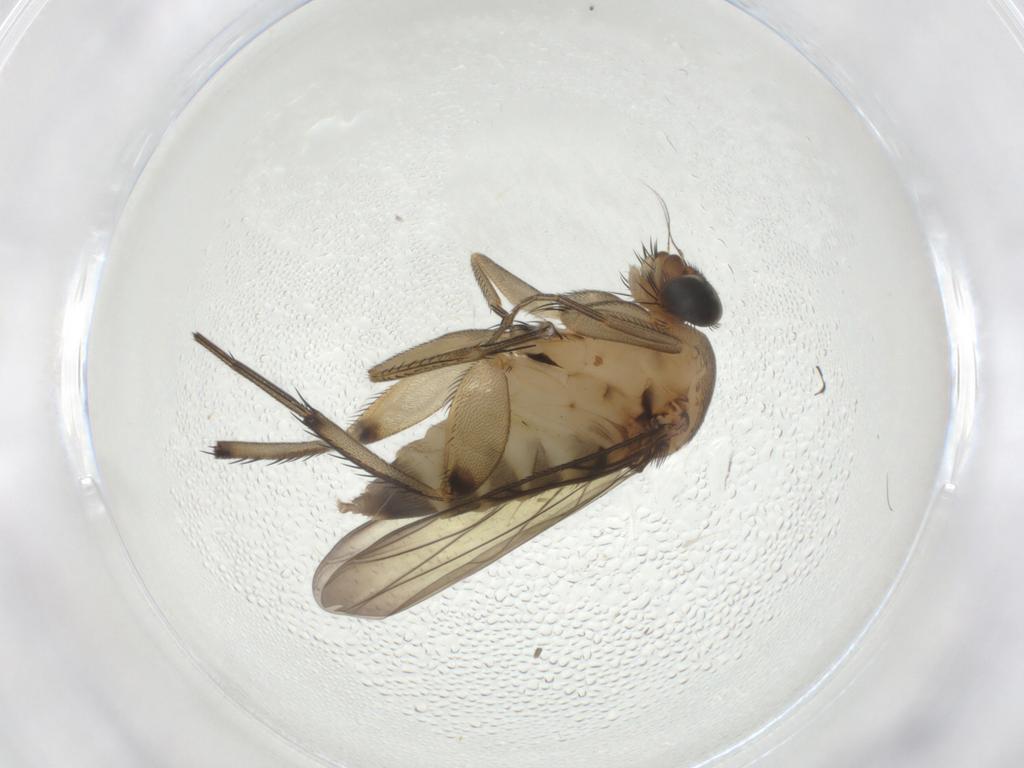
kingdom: Animalia
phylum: Arthropoda
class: Insecta
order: Diptera
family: Phoridae
